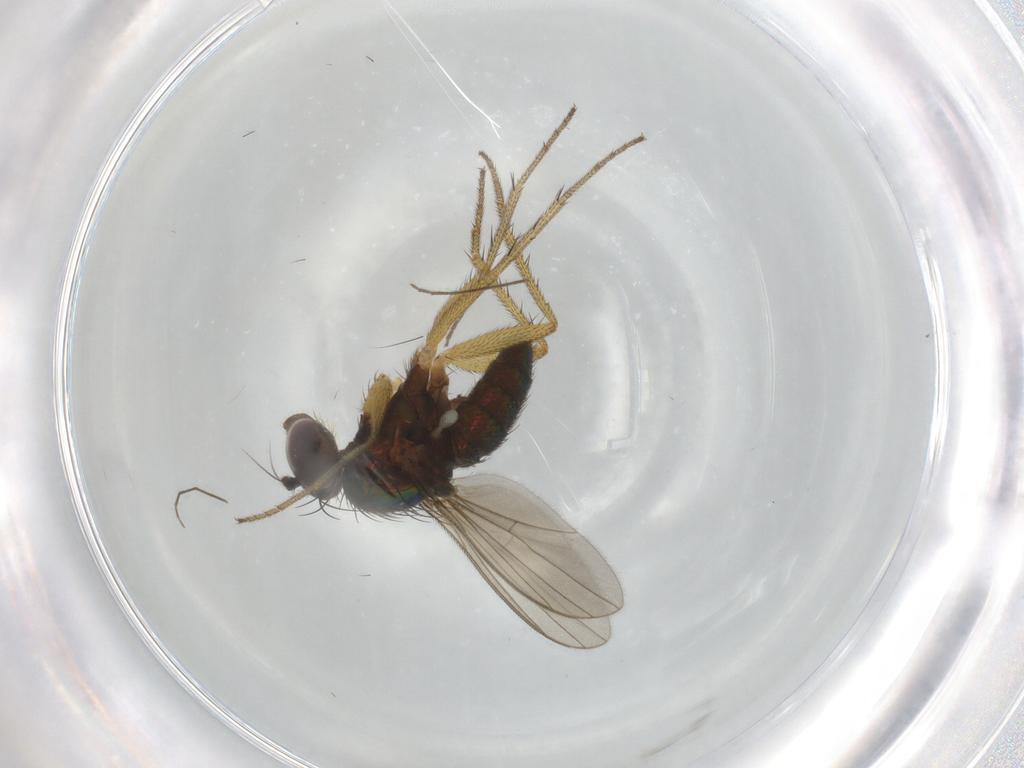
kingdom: Animalia
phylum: Arthropoda
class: Insecta
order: Diptera
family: Chironomidae
